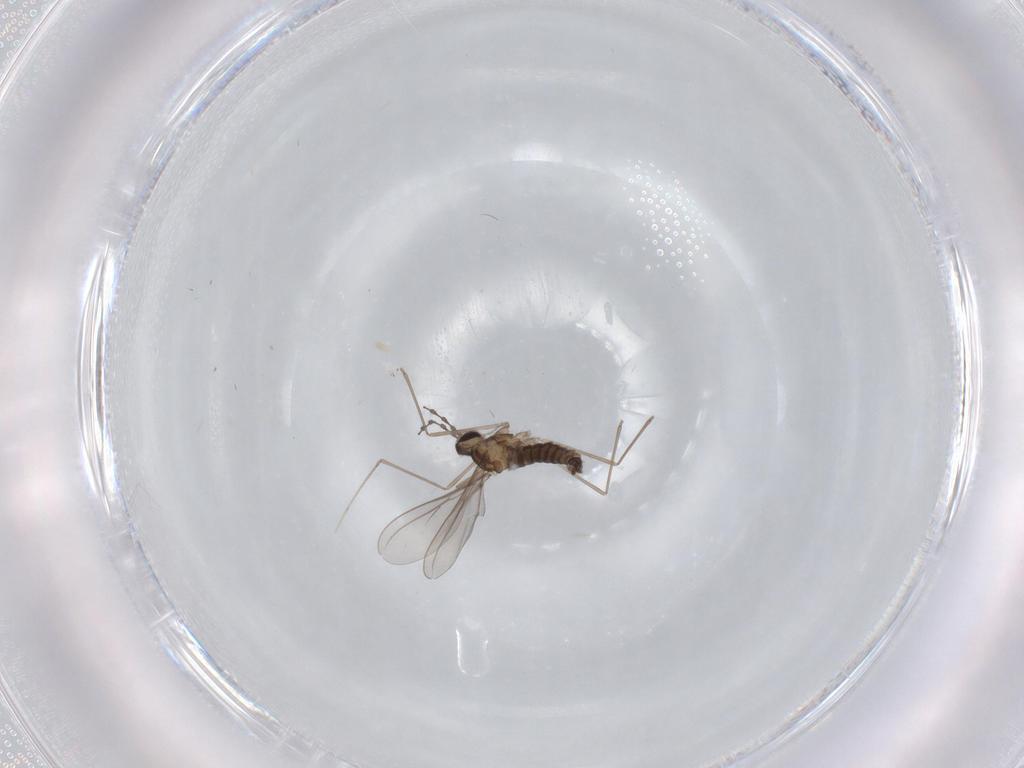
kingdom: Animalia
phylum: Arthropoda
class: Insecta
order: Diptera
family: Cecidomyiidae
